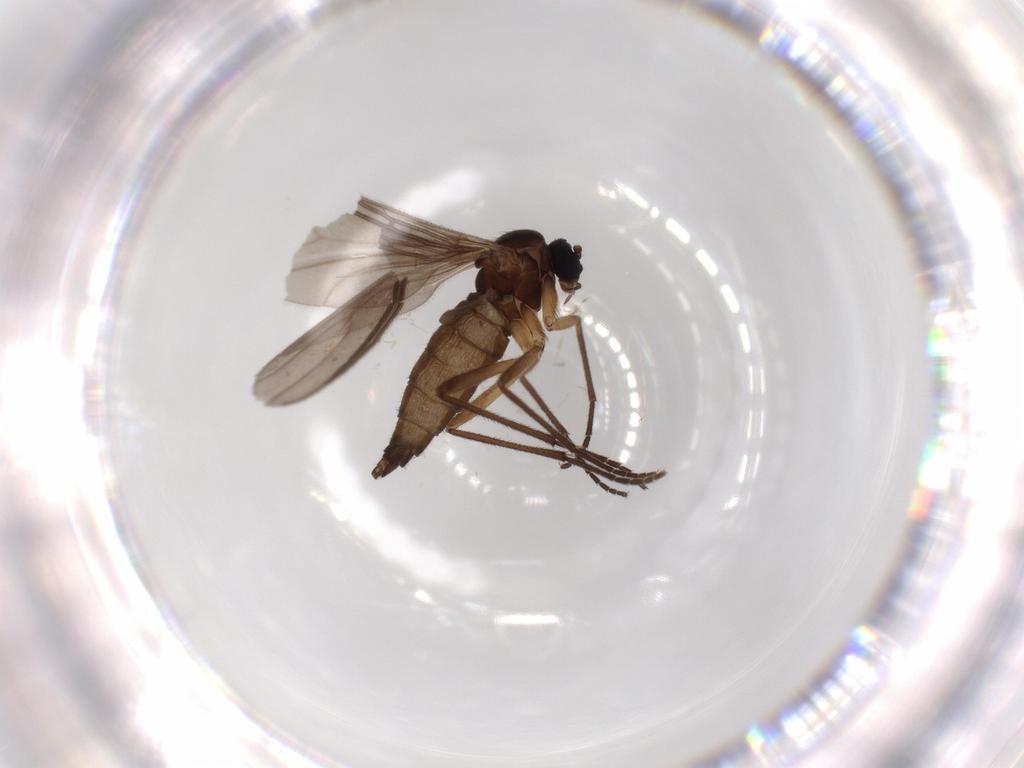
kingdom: Animalia
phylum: Arthropoda
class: Insecta
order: Diptera
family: Sciaridae
